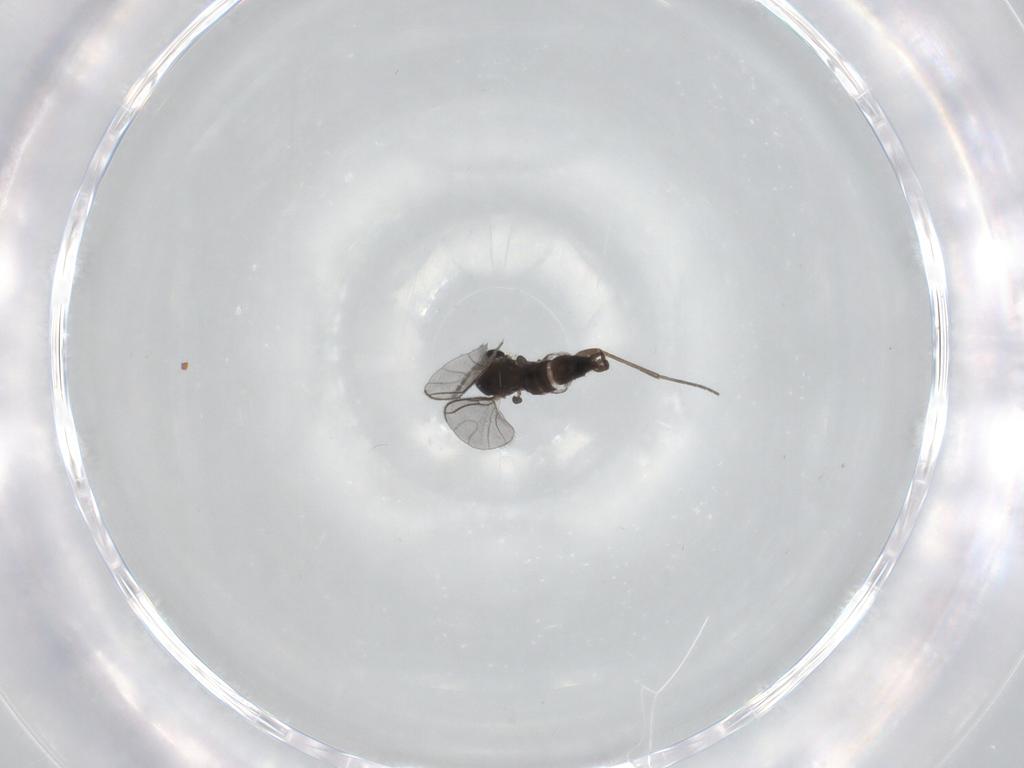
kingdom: Animalia
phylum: Arthropoda
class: Insecta
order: Diptera
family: Sciaridae
